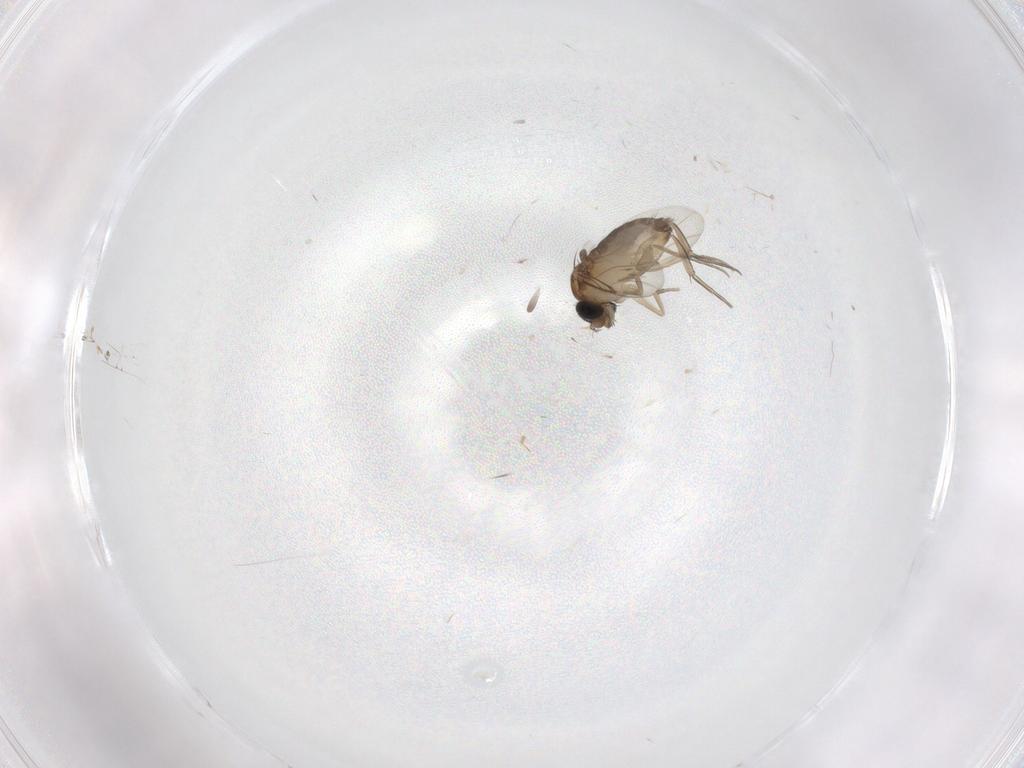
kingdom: Animalia
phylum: Arthropoda
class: Insecta
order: Diptera
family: Phoridae
